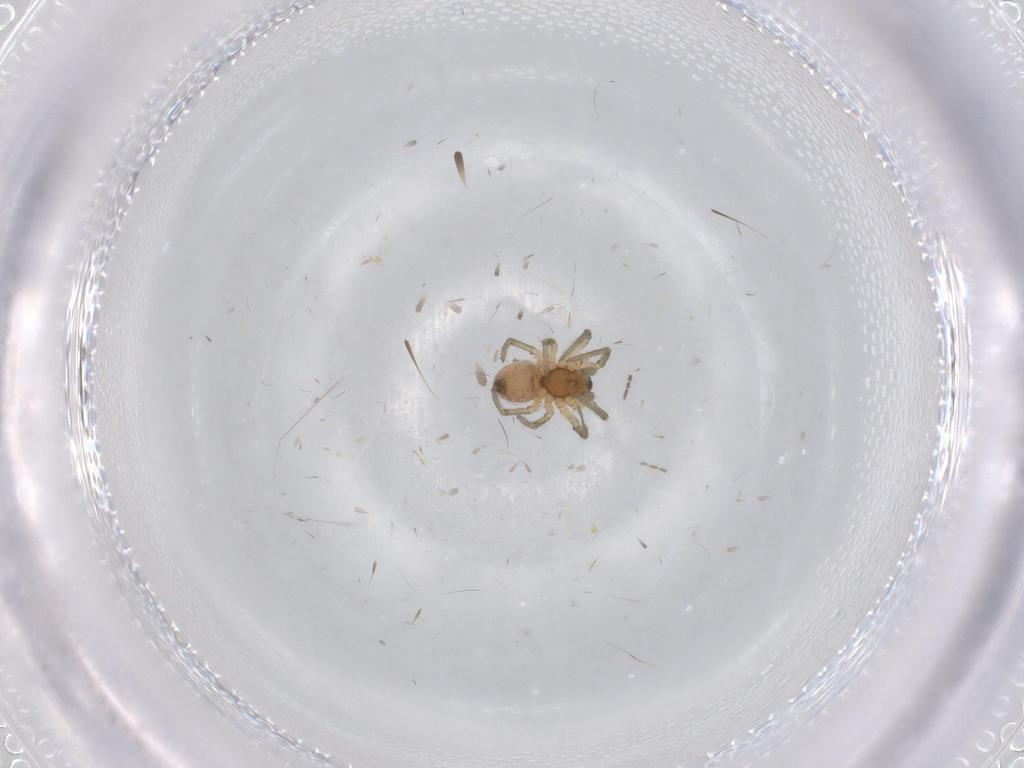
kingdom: Animalia
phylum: Arthropoda
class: Arachnida
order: Araneae
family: Linyphiidae
